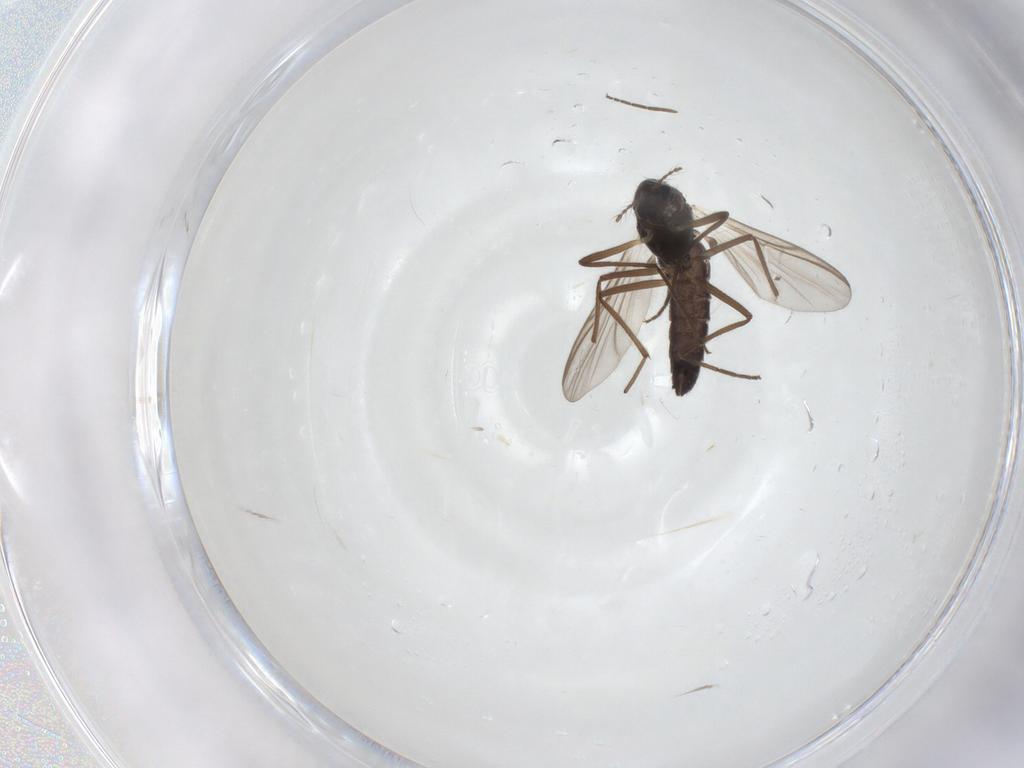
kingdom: Animalia
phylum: Arthropoda
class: Insecta
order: Diptera
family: Chironomidae
